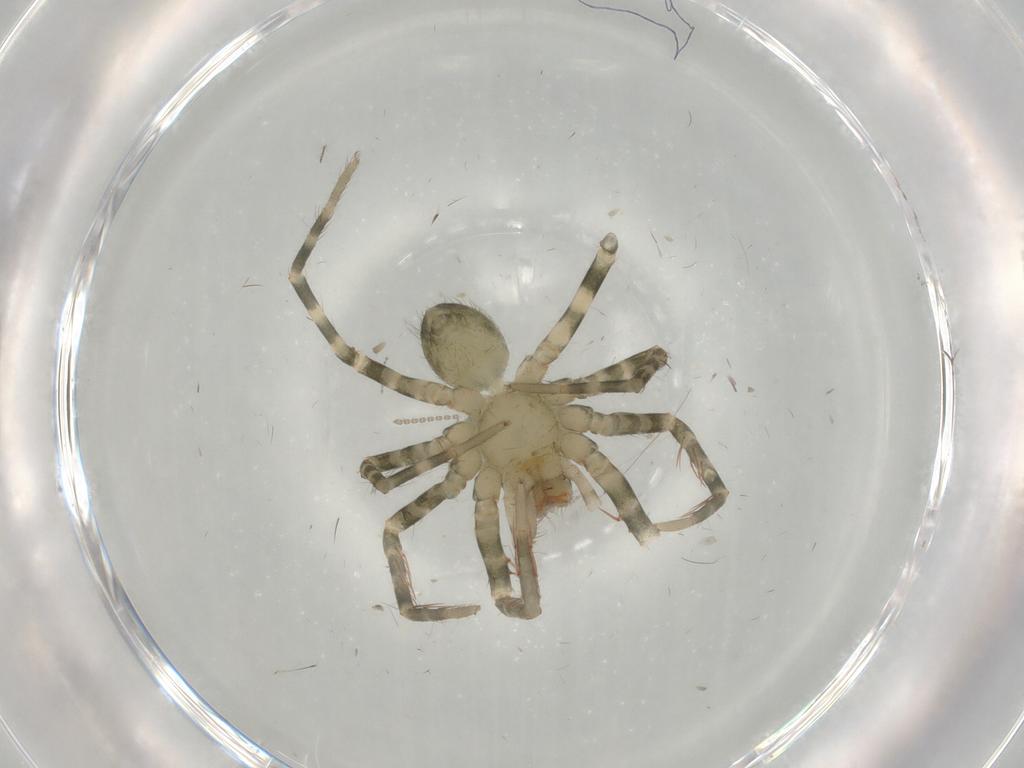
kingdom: Animalia
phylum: Arthropoda
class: Arachnida
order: Araneae
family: Ctenidae
